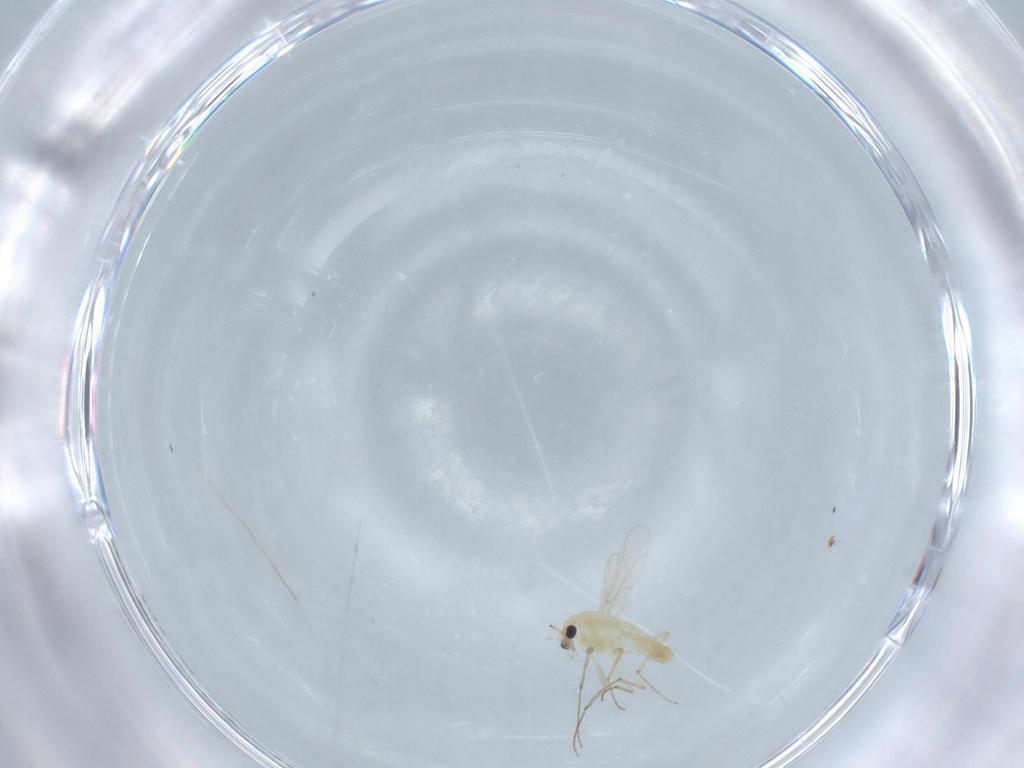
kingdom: Animalia
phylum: Arthropoda
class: Insecta
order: Diptera
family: Chironomidae
